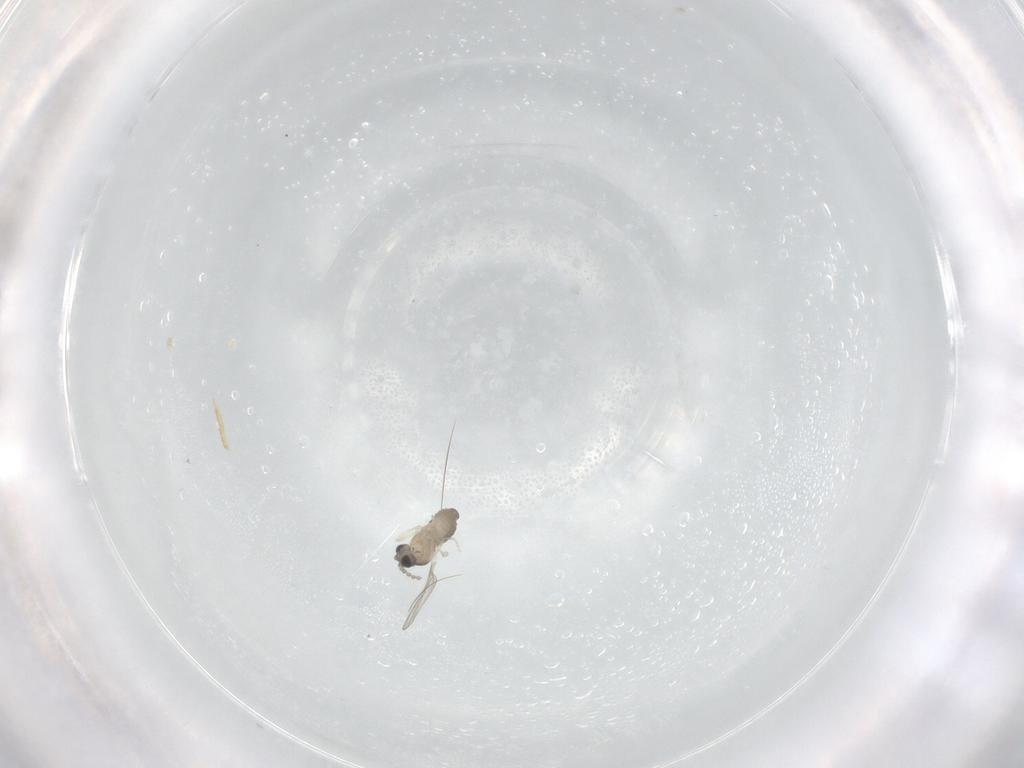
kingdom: Animalia
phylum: Arthropoda
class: Insecta
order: Diptera
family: Cecidomyiidae
